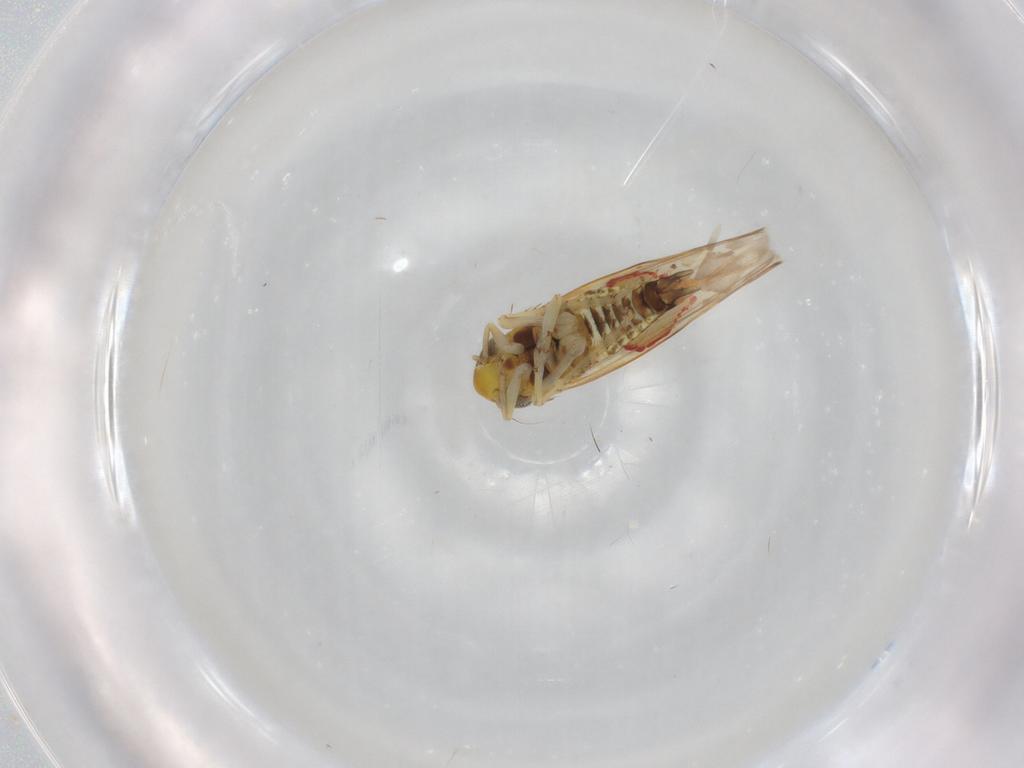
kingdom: Animalia
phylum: Arthropoda
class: Insecta
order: Hemiptera
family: Cicadellidae
